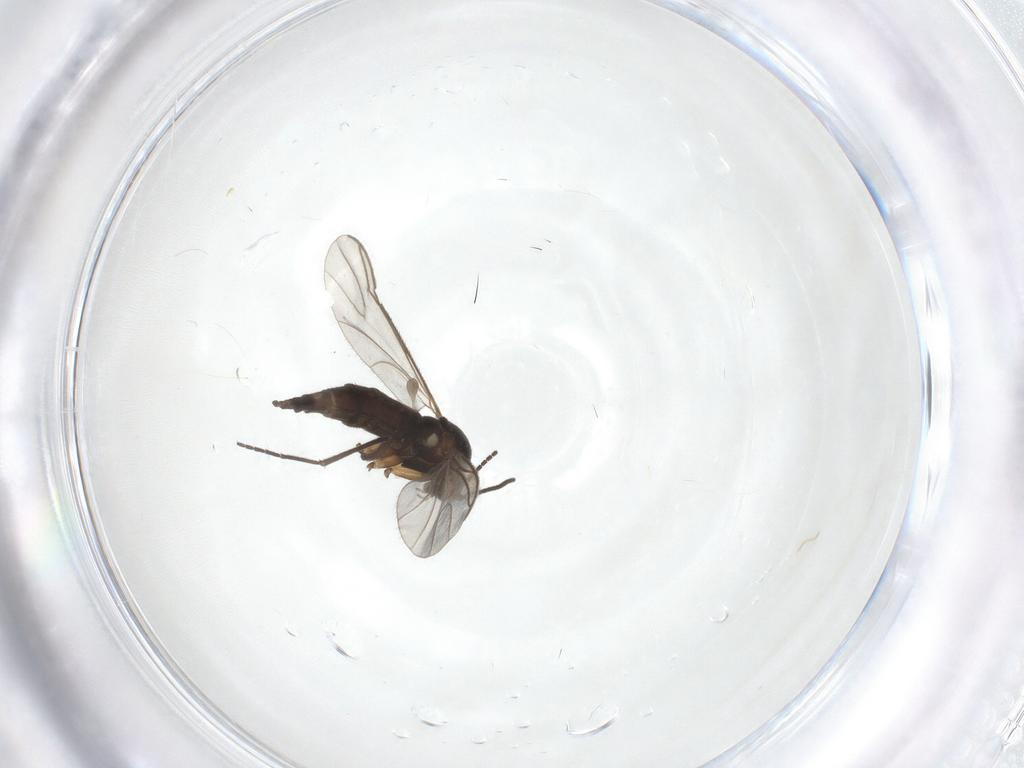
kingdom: Animalia
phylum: Arthropoda
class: Insecta
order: Diptera
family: Sciaridae
